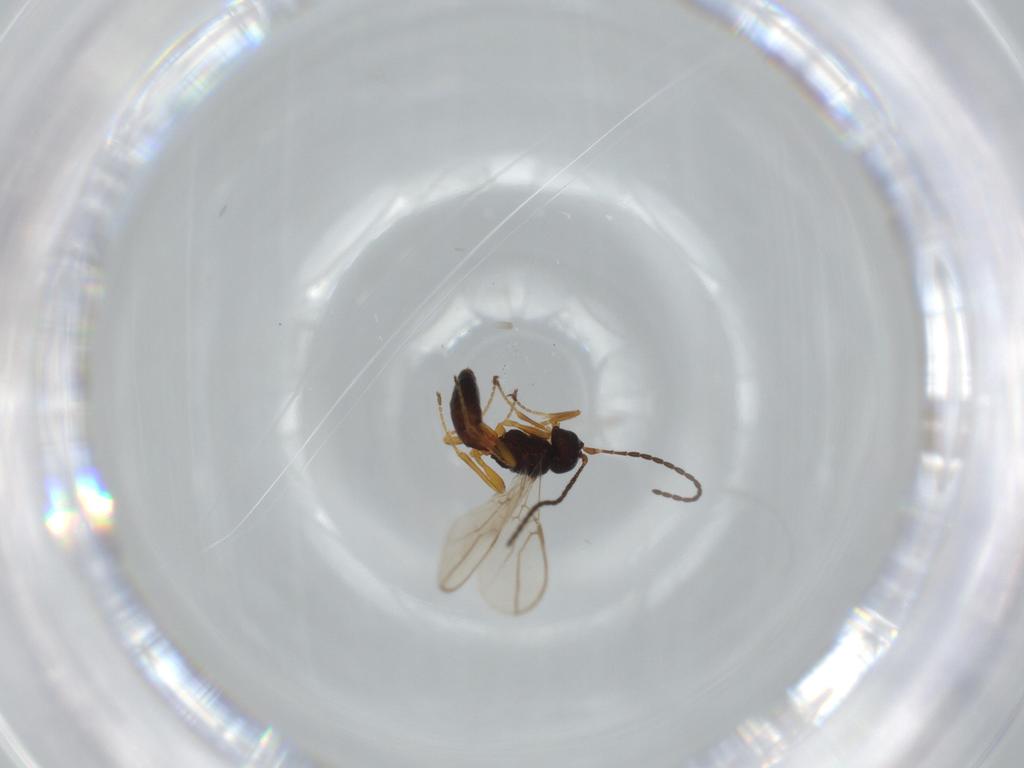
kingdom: Animalia
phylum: Arthropoda
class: Insecta
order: Hymenoptera
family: Braconidae
